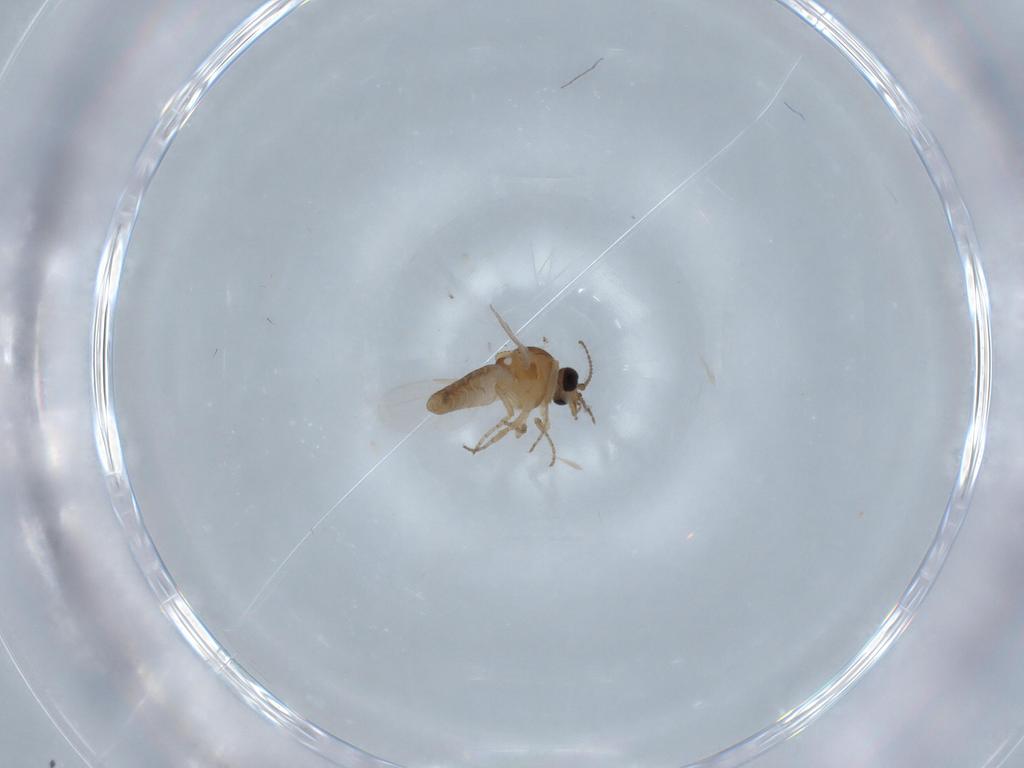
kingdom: Animalia
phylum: Arthropoda
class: Insecta
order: Diptera
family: Ceratopogonidae
